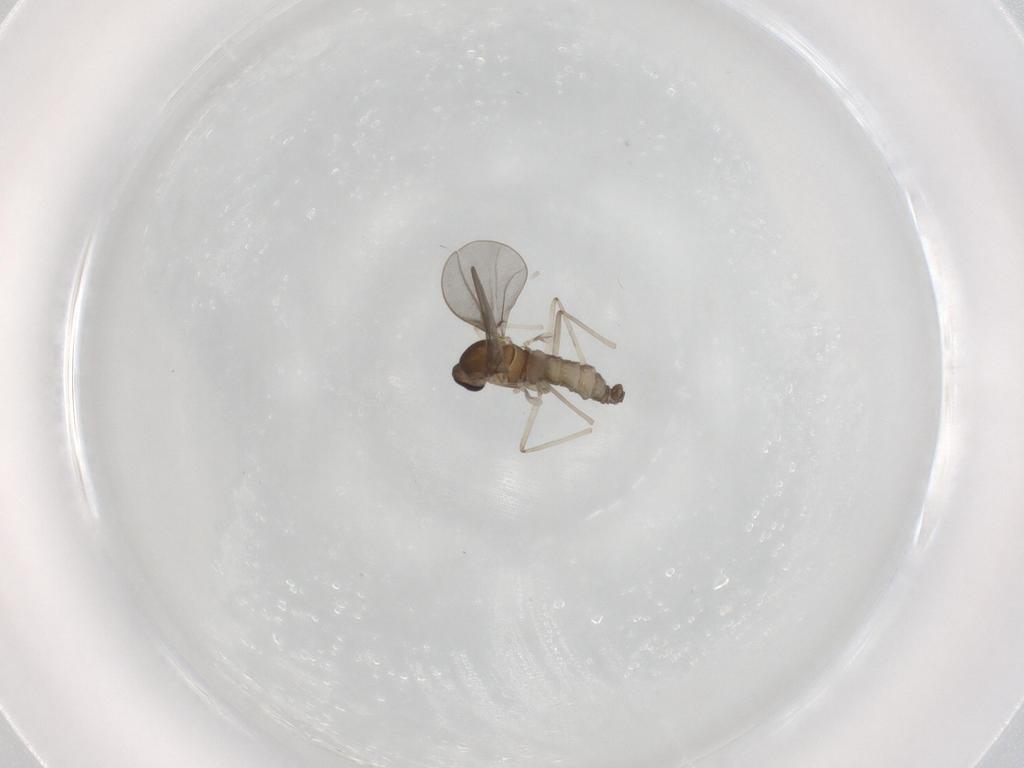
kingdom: Animalia
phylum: Arthropoda
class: Insecta
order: Diptera
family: Cecidomyiidae
